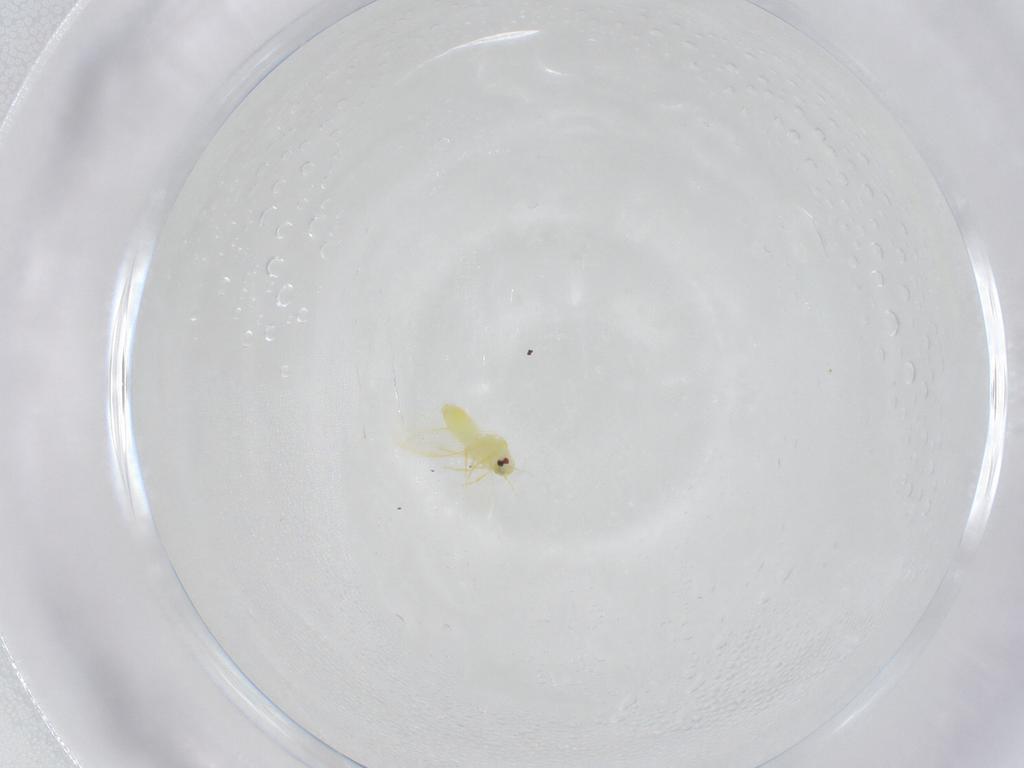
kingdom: Animalia
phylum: Arthropoda
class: Insecta
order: Hemiptera
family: Aleyrodidae
